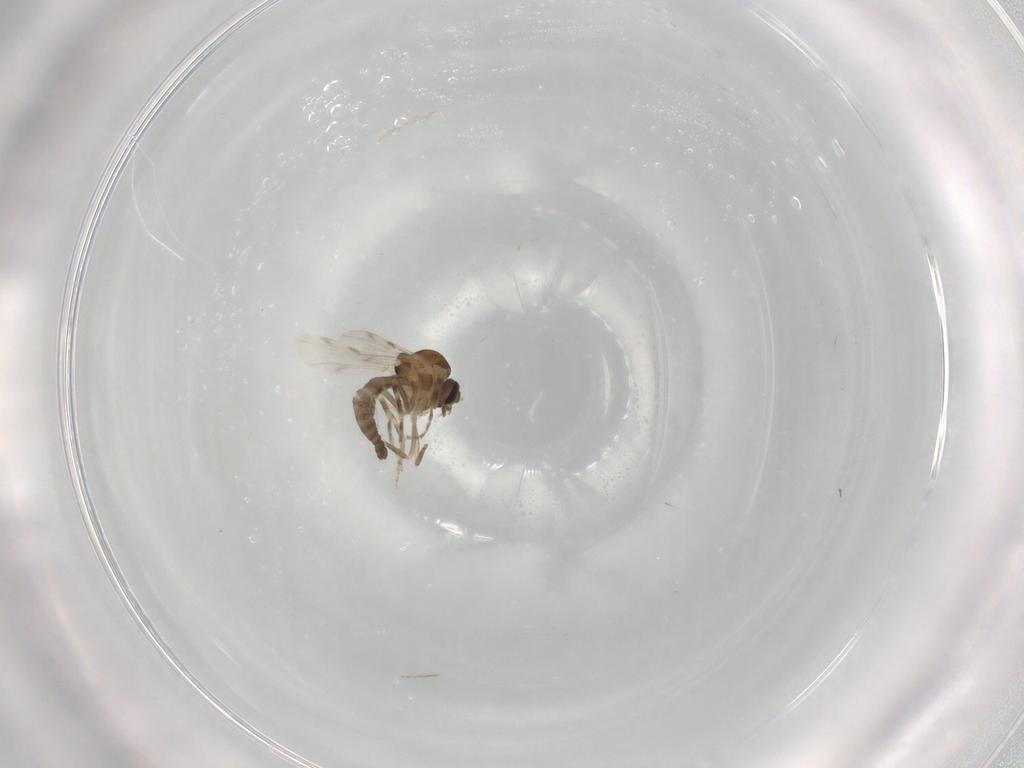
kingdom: Animalia
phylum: Arthropoda
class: Insecta
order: Diptera
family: Ceratopogonidae
